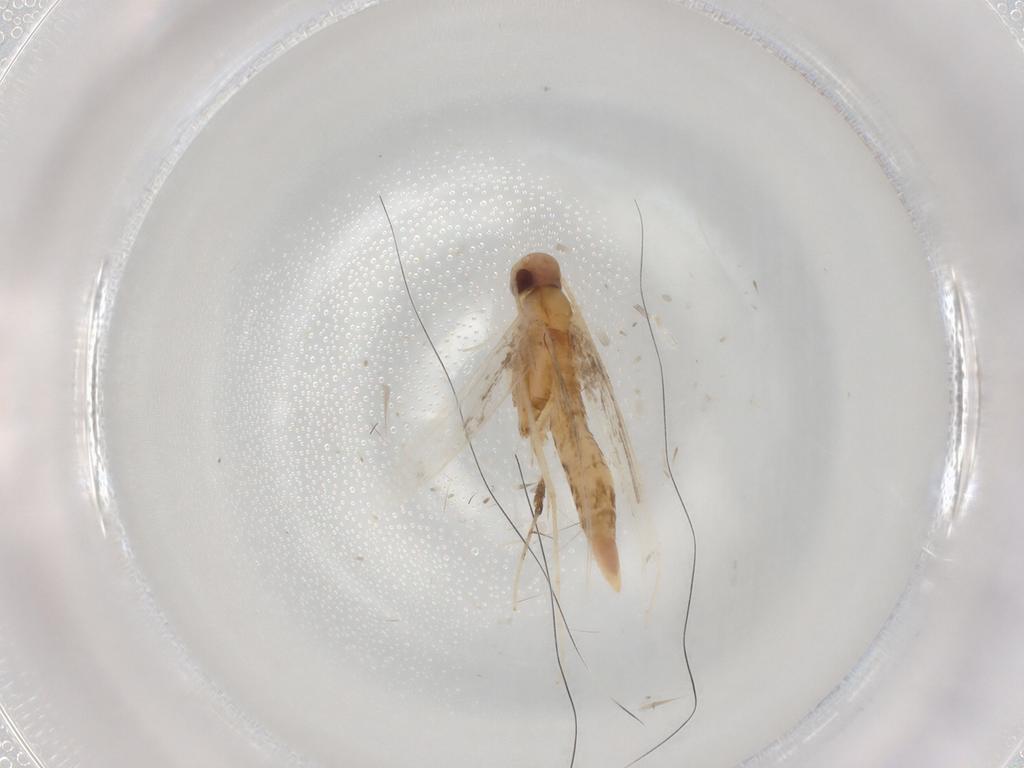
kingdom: Animalia
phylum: Arthropoda
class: Insecta
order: Lepidoptera
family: Gracillariidae
